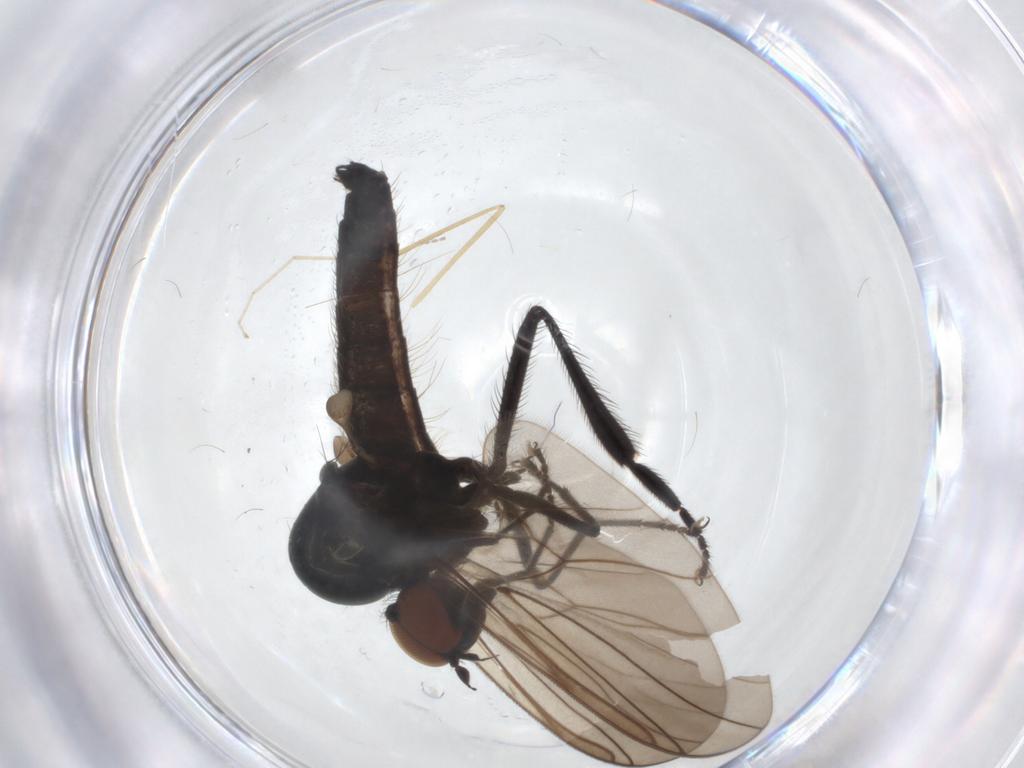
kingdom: Animalia
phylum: Arthropoda
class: Insecta
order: Diptera
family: Hybotidae
